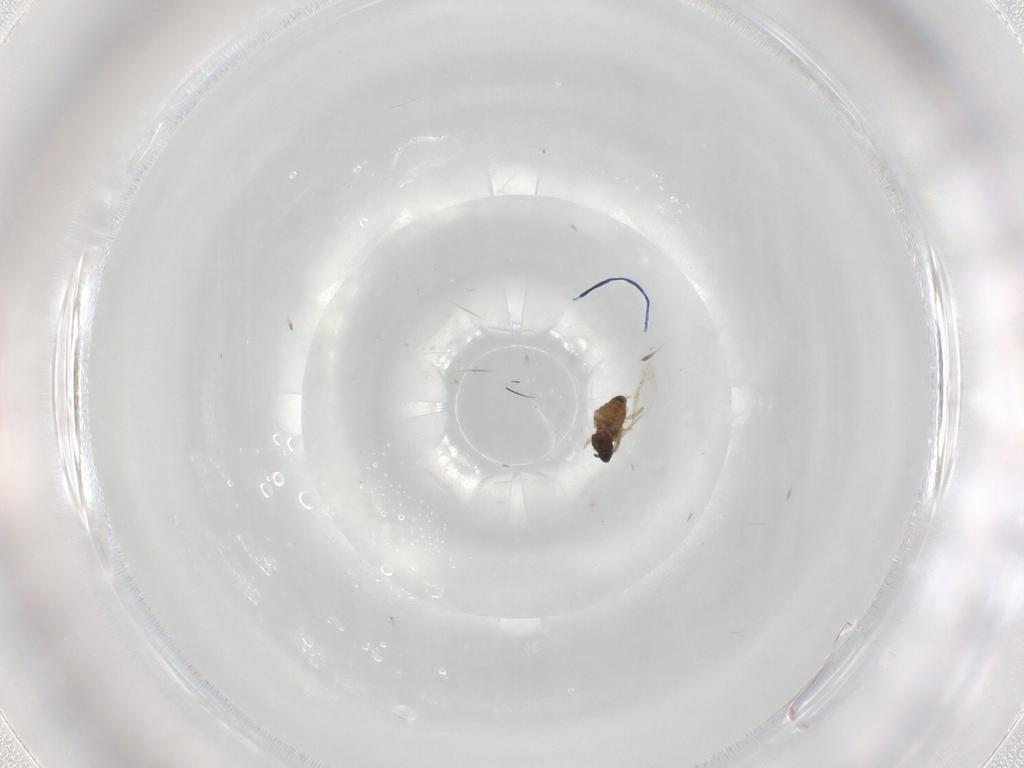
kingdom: Animalia
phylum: Arthropoda
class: Insecta
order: Diptera
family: Cecidomyiidae
